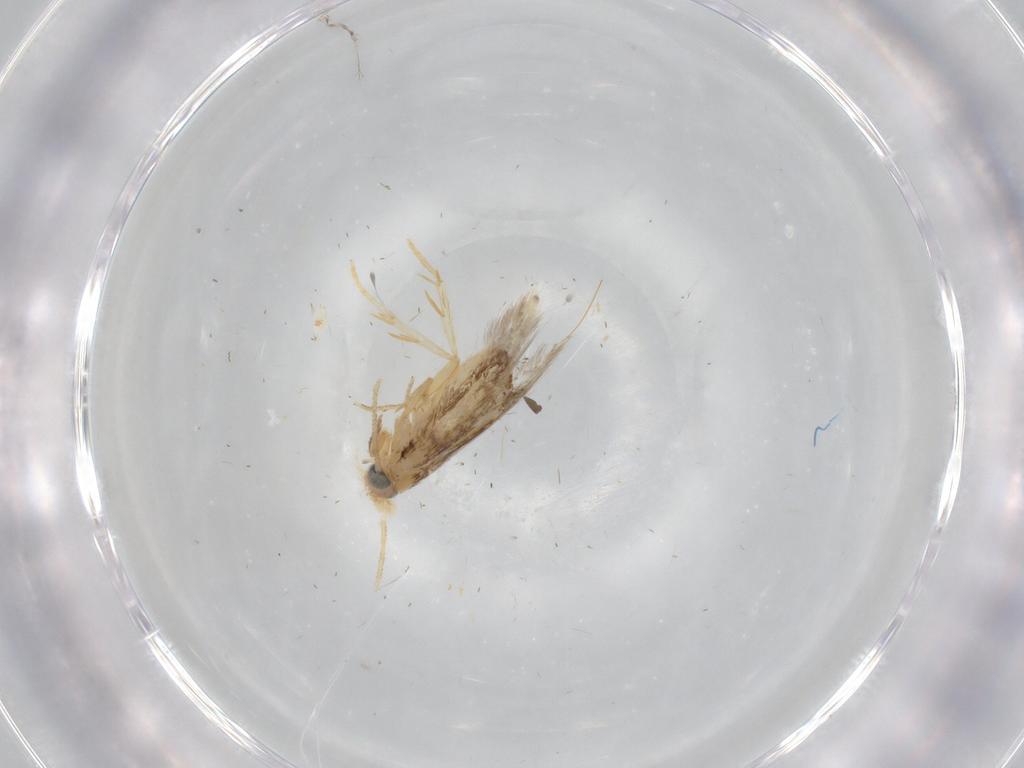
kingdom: Animalia
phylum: Arthropoda
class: Insecta
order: Lepidoptera
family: Nepticulidae
